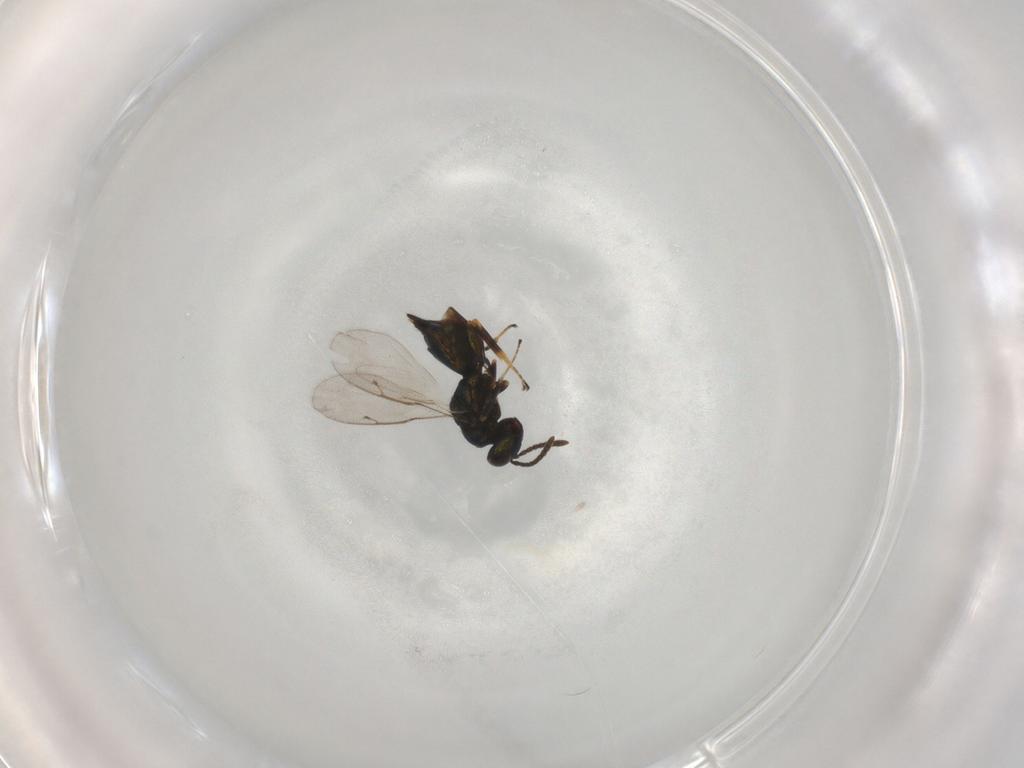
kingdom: Animalia
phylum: Arthropoda
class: Insecta
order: Hymenoptera
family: Pteromalidae
